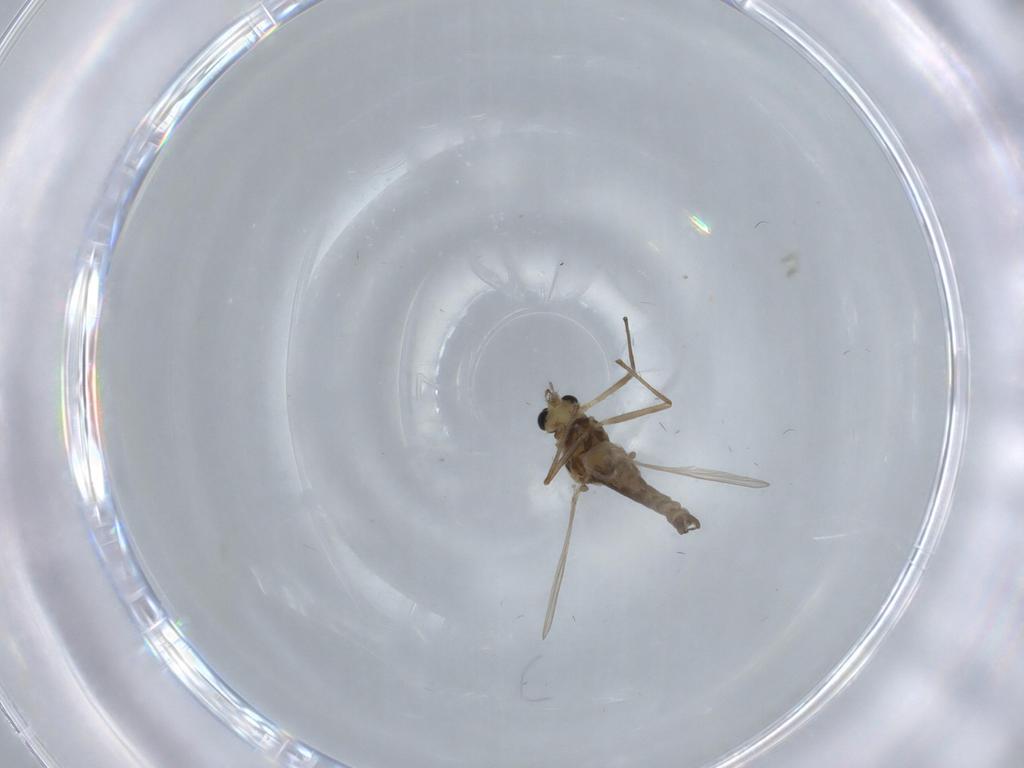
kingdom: Animalia
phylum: Arthropoda
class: Insecta
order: Diptera
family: Chironomidae
